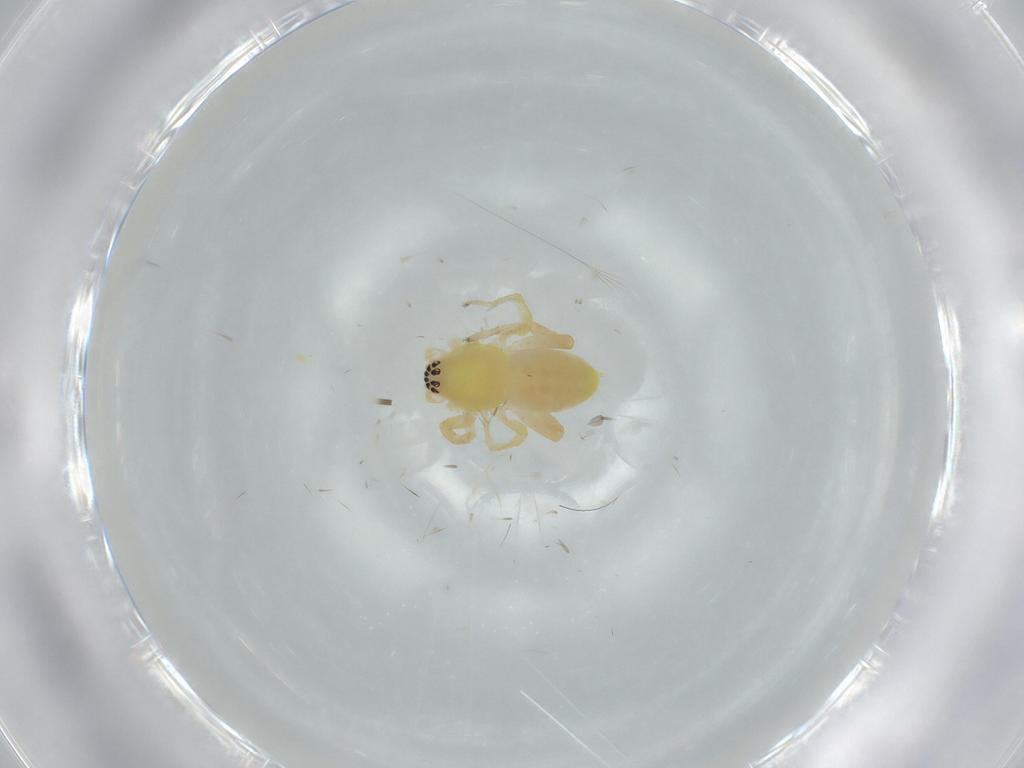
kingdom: Animalia
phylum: Arthropoda
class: Arachnida
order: Araneae
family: Anyphaenidae
